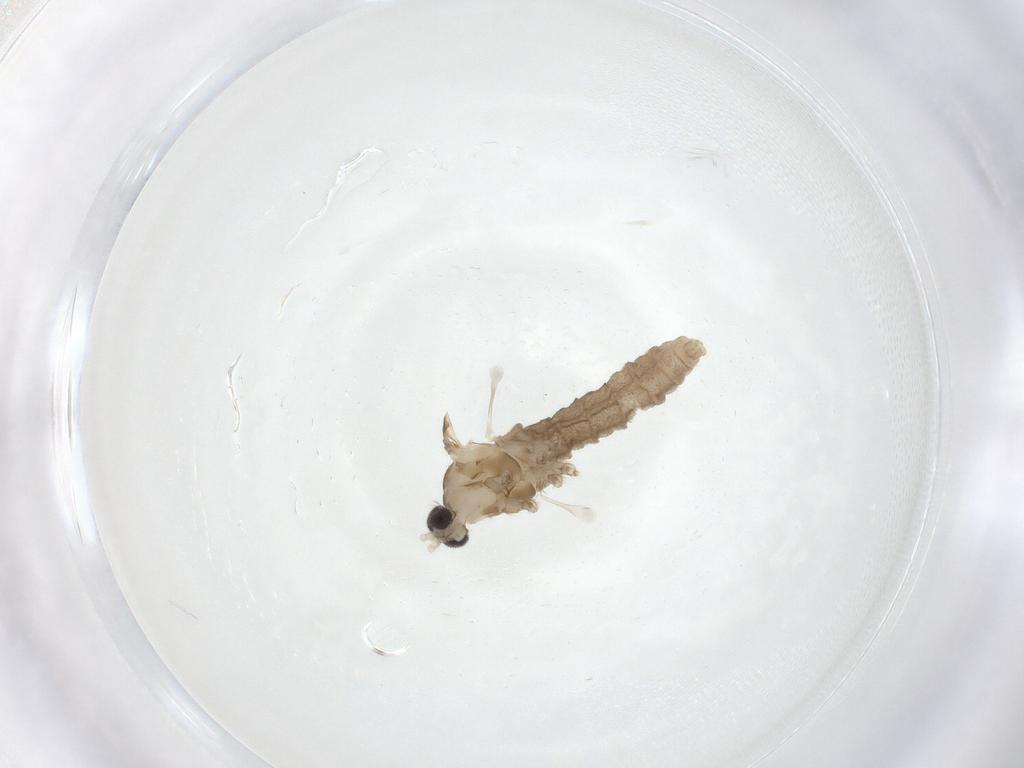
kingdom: Animalia
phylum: Arthropoda
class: Insecta
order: Diptera
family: Cecidomyiidae
